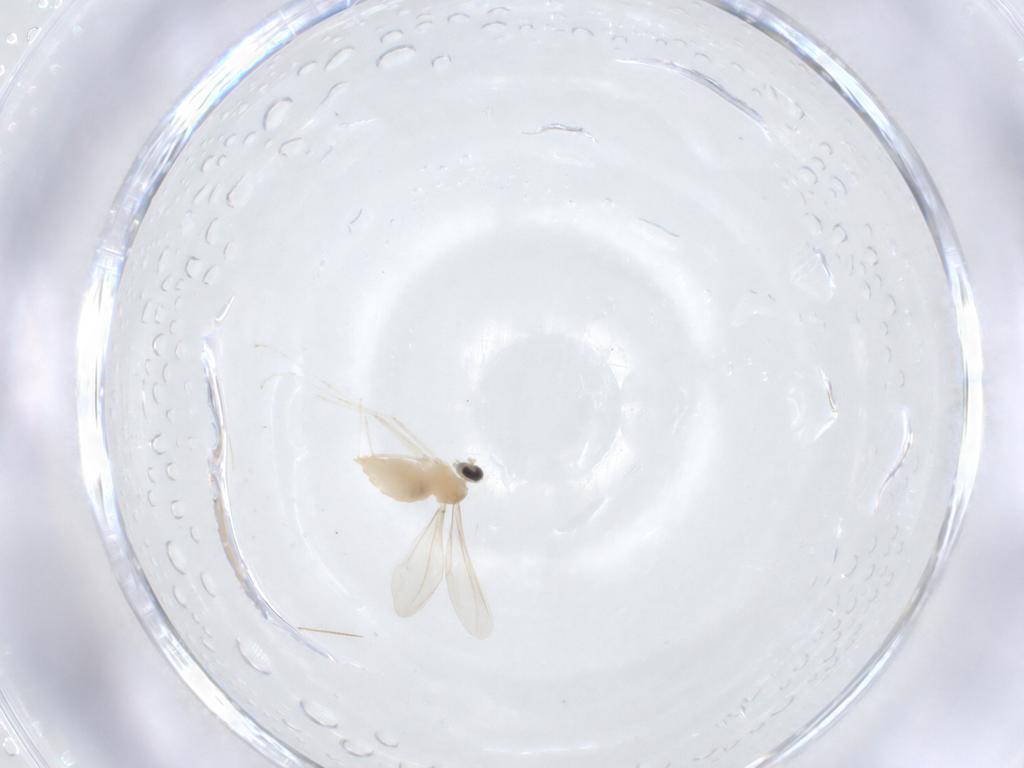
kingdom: Animalia
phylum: Arthropoda
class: Insecta
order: Diptera
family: Cecidomyiidae
